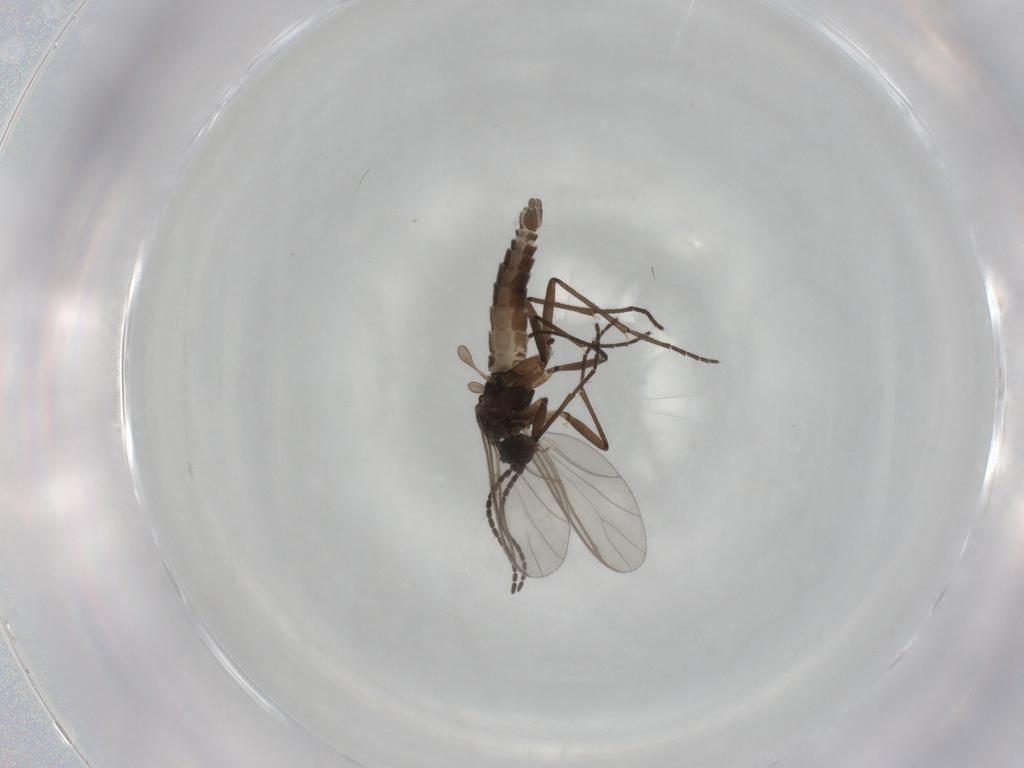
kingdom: Animalia
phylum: Arthropoda
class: Insecta
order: Diptera
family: Sciaridae
